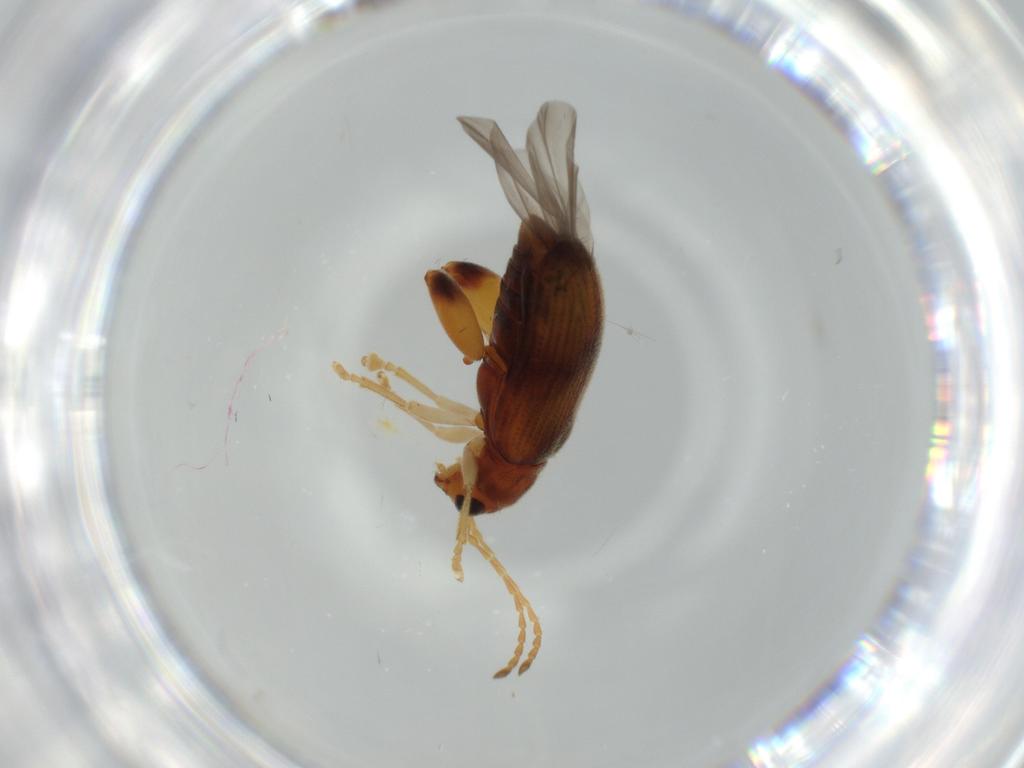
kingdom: Animalia
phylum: Arthropoda
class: Insecta
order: Coleoptera
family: Chrysomelidae
